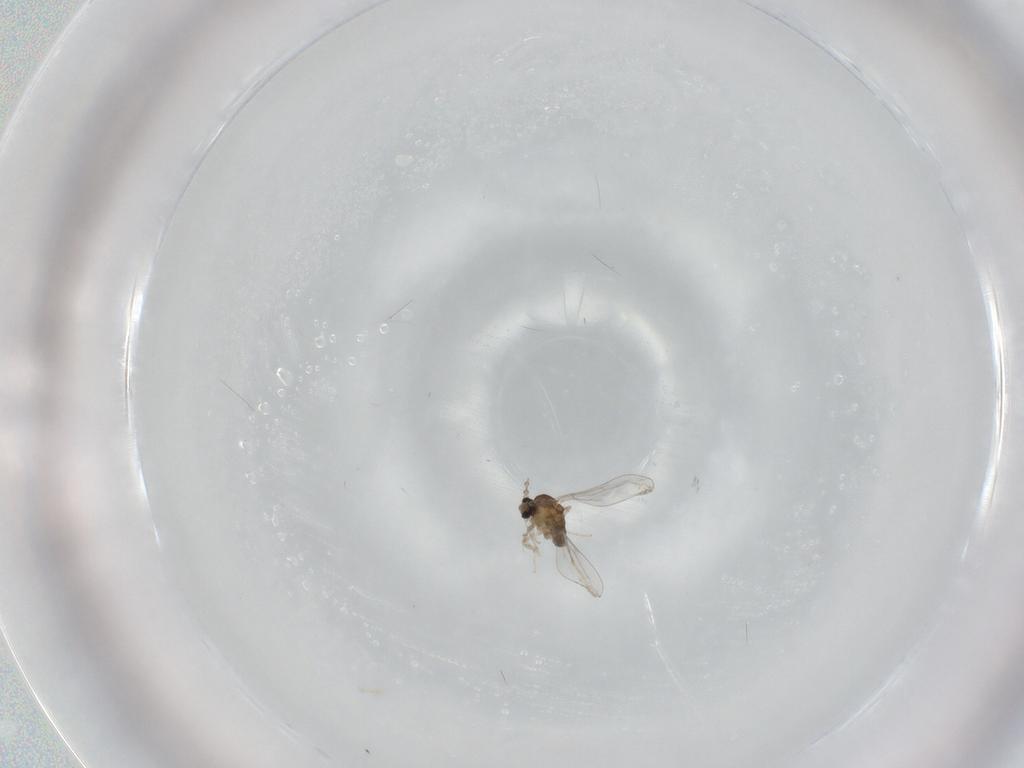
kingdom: Animalia
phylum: Arthropoda
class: Insecta
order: Diptera
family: Cecidomyiidae
